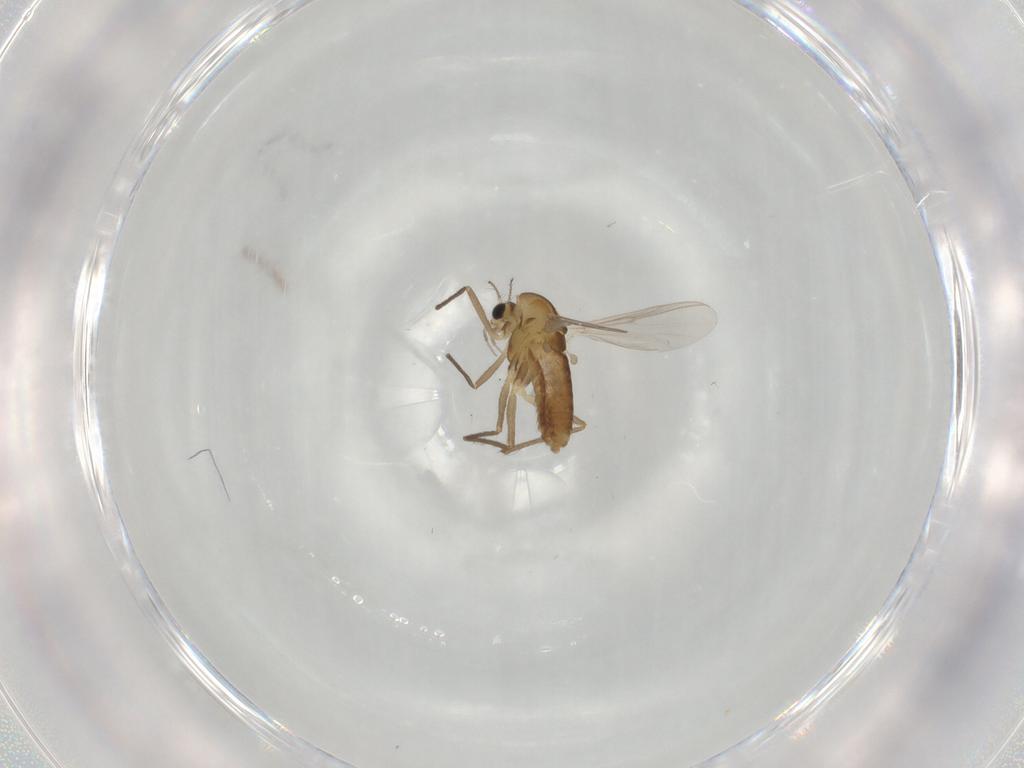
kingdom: Animalia
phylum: Arthropoda
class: Insecta
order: Diptera
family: Chironomidae
